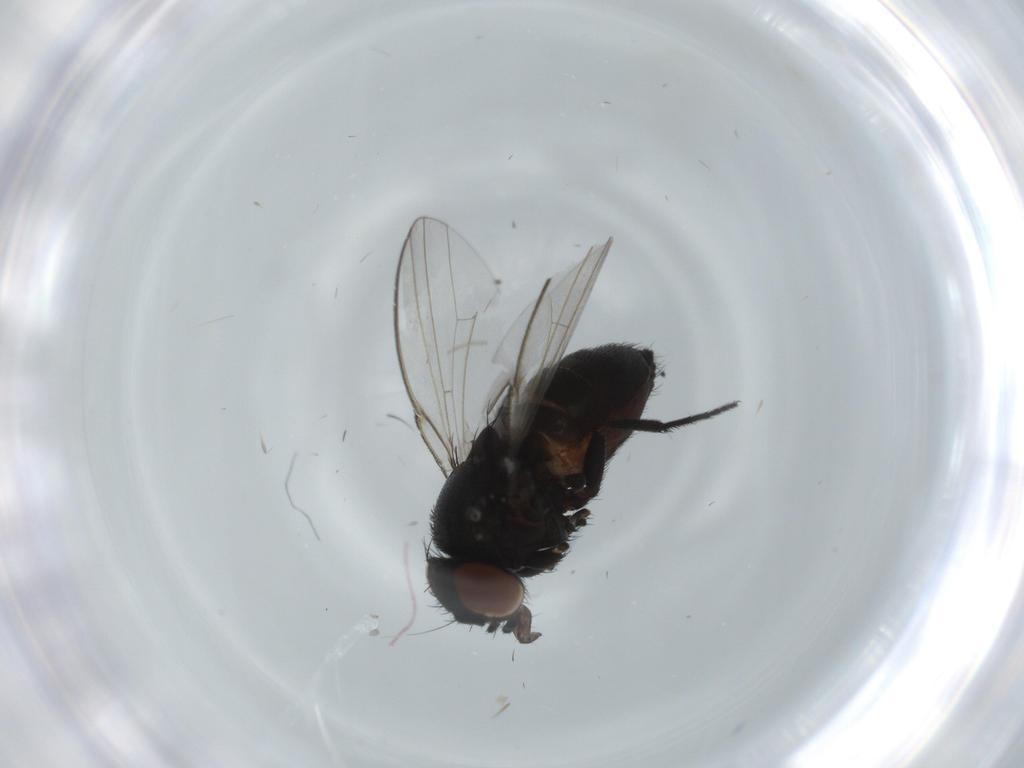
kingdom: Animalia
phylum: Arthropoda
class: Insecta
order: Diptera
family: Milichiidae
